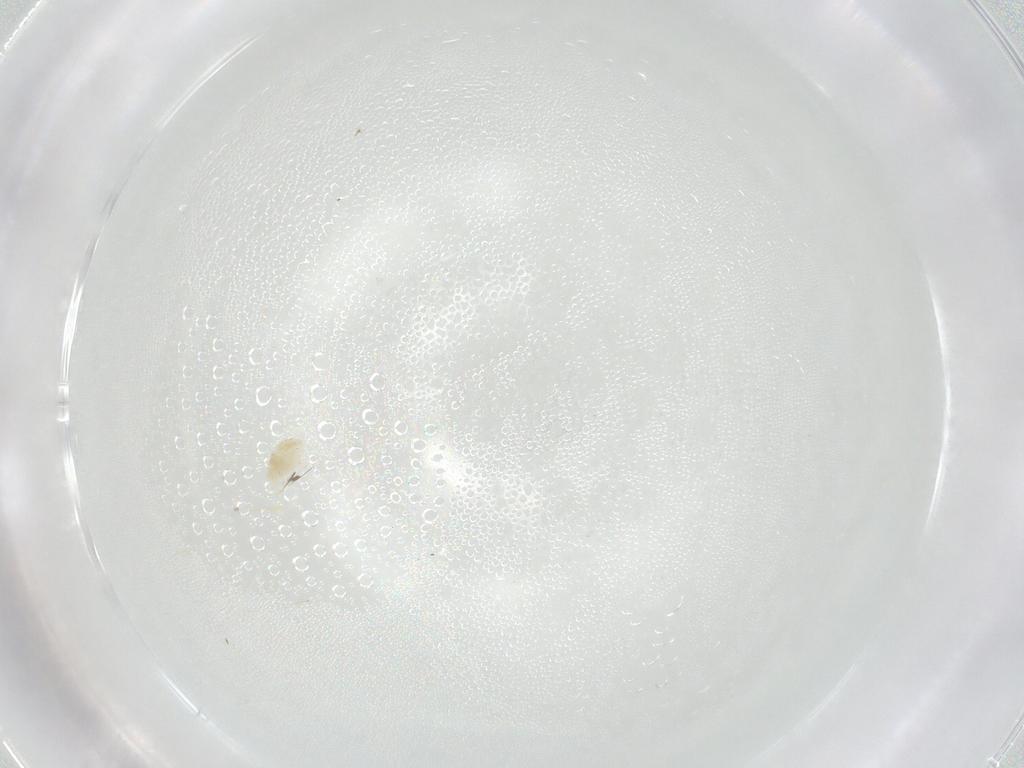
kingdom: Animalia
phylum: Arthropoda
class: Arachnida
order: Trombidiformes
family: Eupodidae
